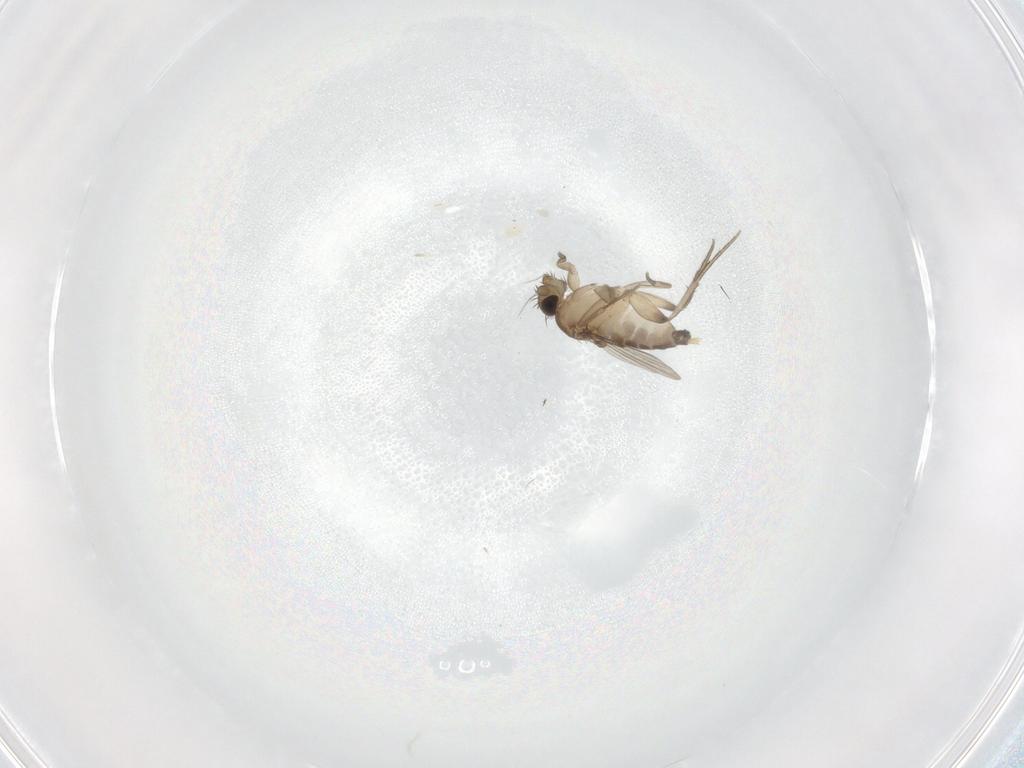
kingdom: Animalia
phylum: Arthropoda
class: Insecta
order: Diptera
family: Stratiomyidae
